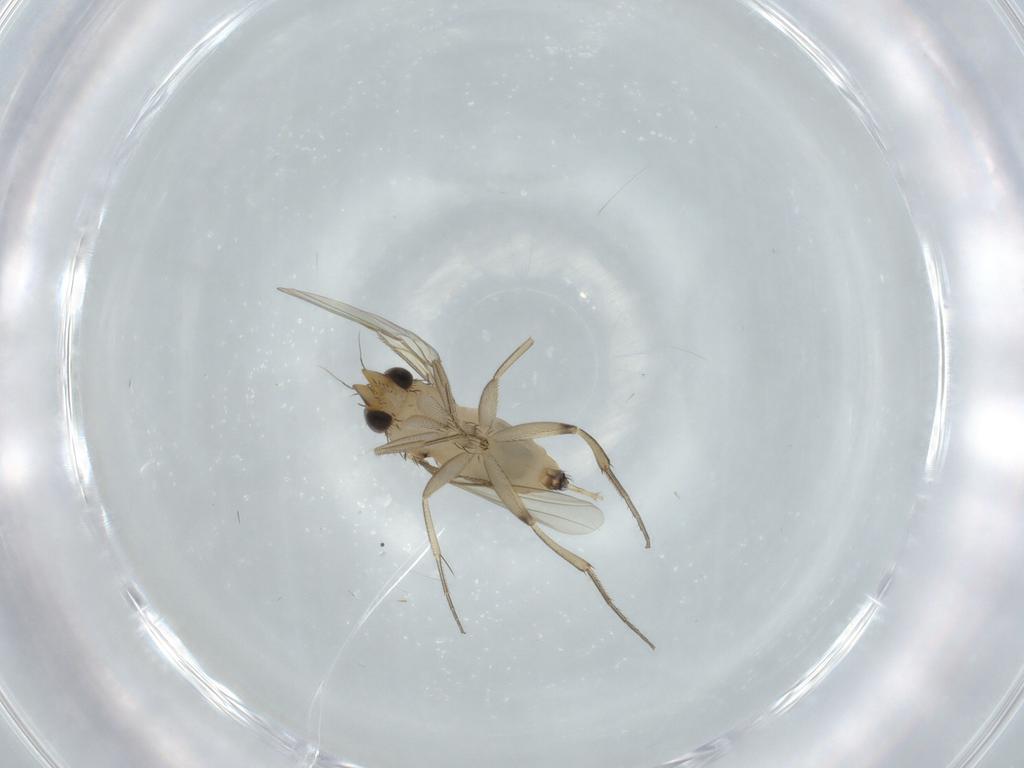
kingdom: Animalia
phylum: Arthropoda
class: Insecta
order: Diptera
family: Phoridae
